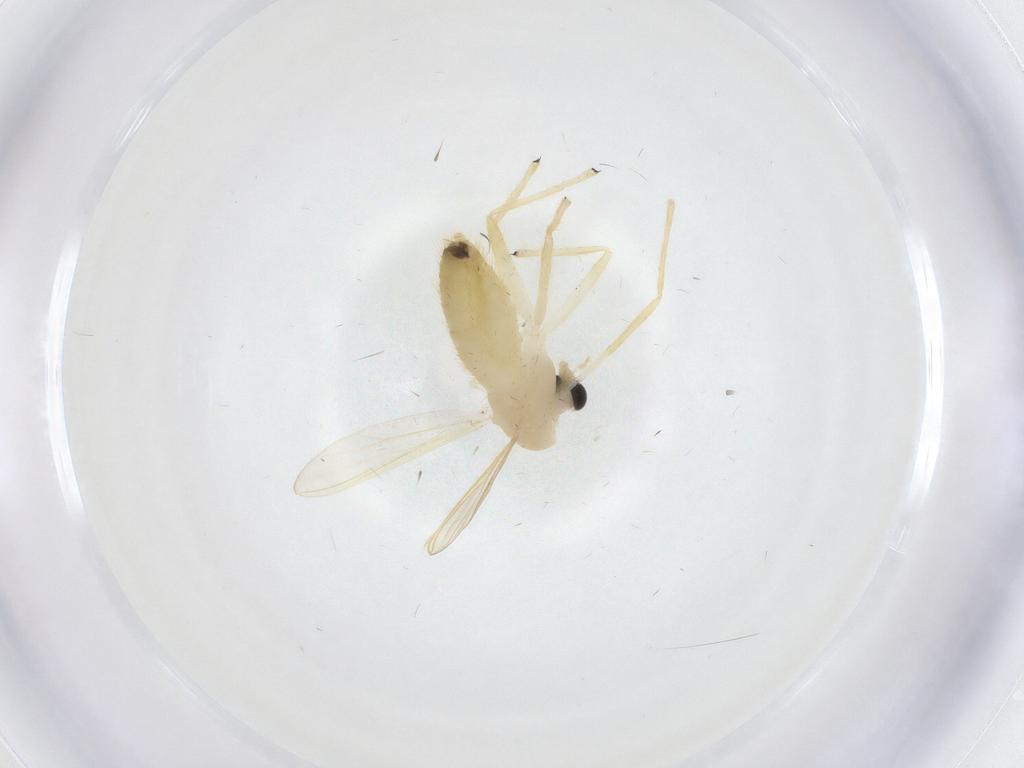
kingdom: Animalia
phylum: Arthropoda
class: Insecta
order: Diptera
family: Chironomidae
